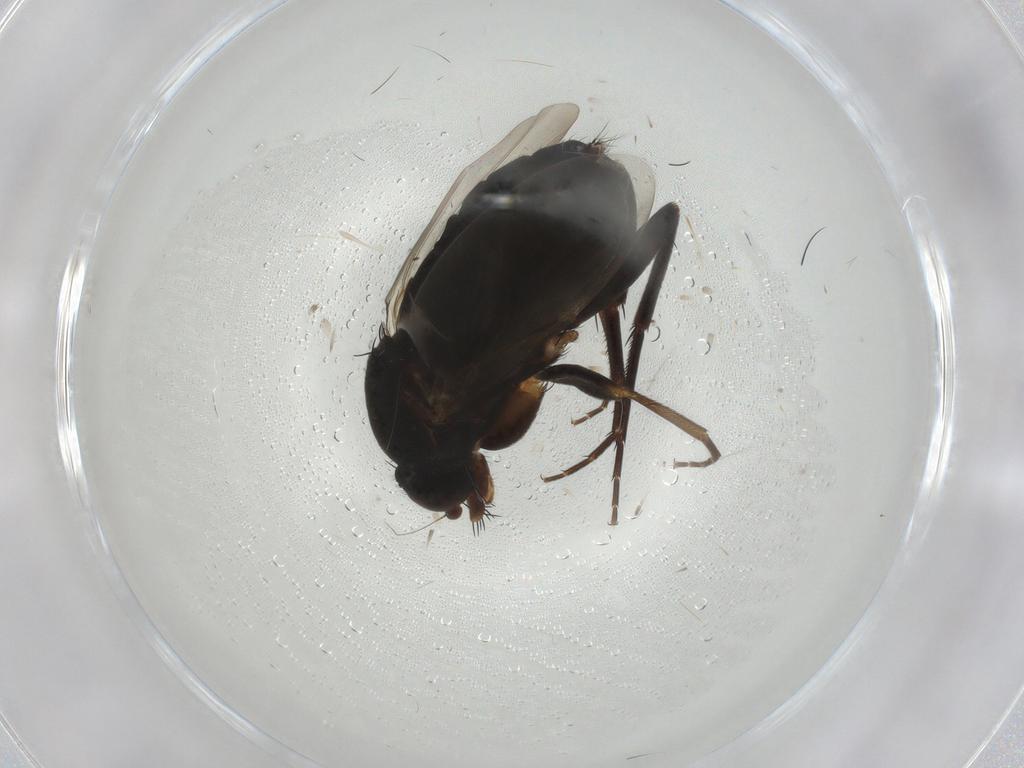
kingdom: Animalia
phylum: Arthropoda
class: Insecta
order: Diptera
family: Phoridae
